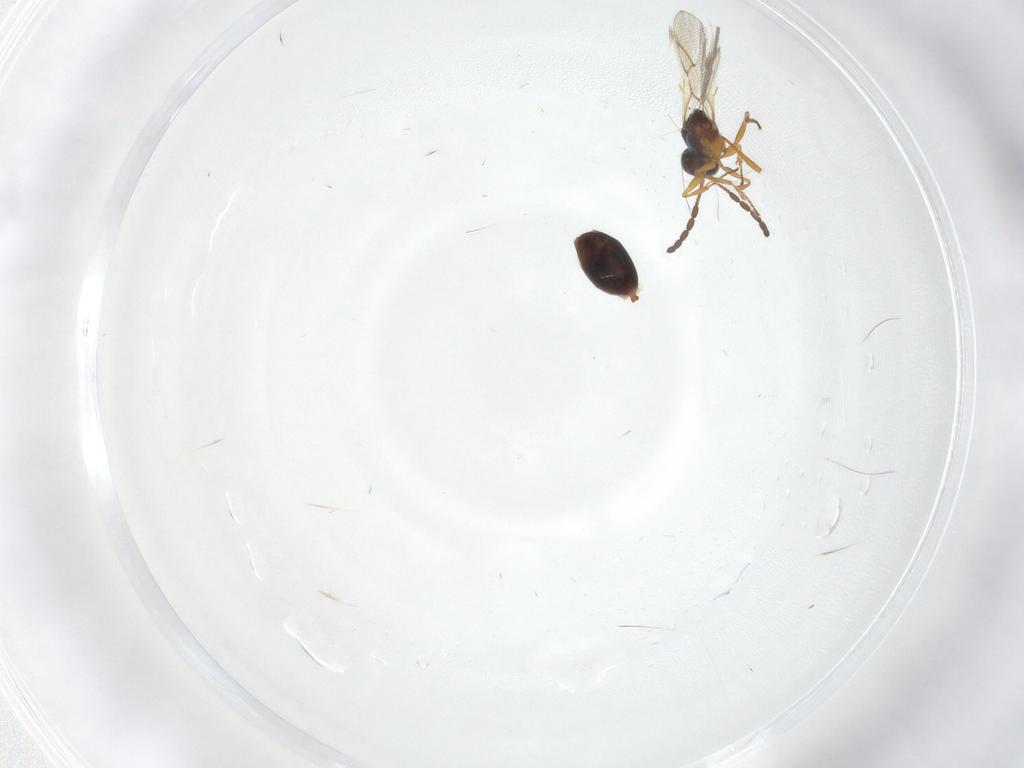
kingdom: Animalia
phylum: Arthropoda
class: Insecta
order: Hymenoptera
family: Figitidae
